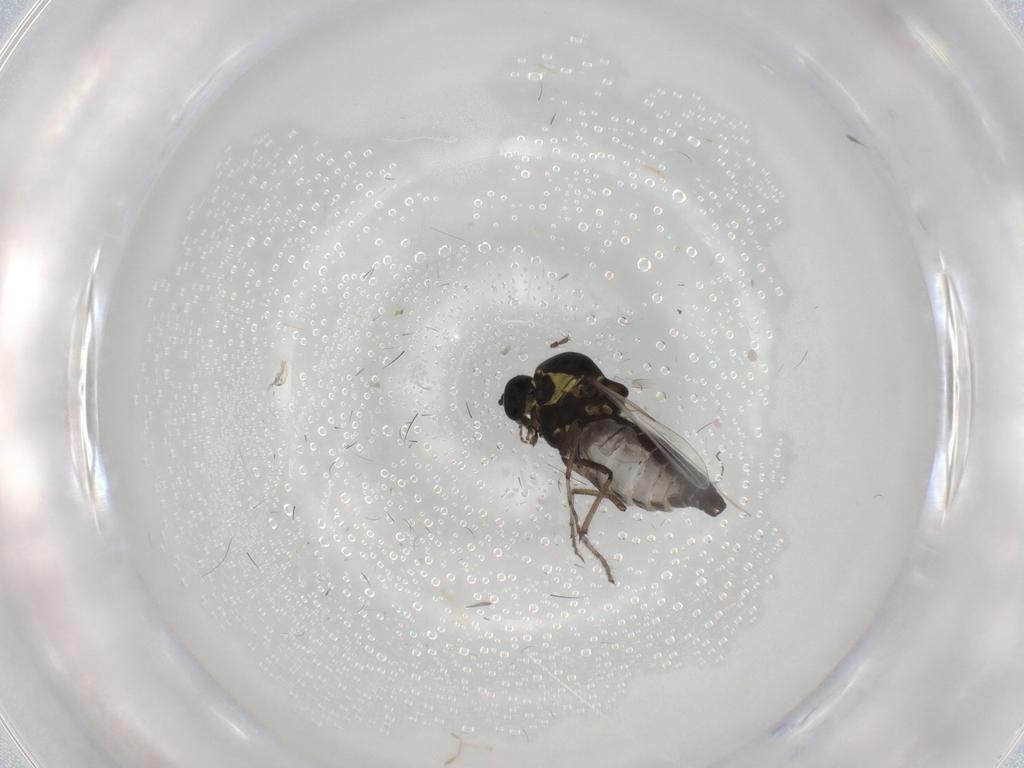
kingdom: Animalia
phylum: Arthropoda
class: Insecta
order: Diptera
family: Ceratopogonidae
